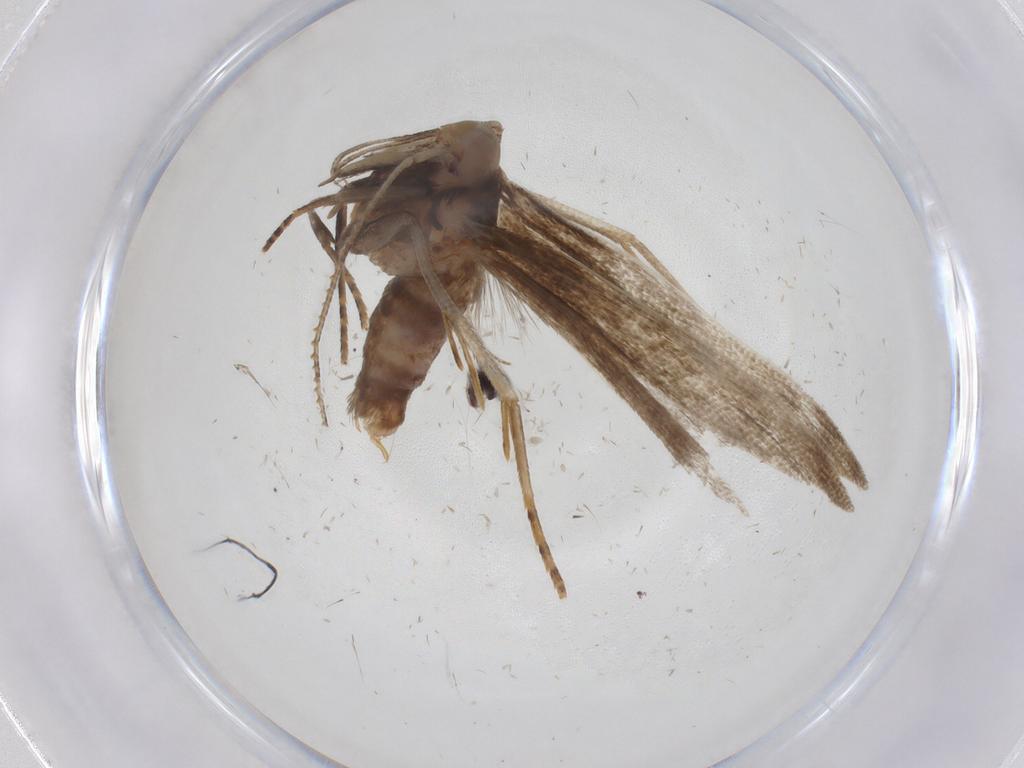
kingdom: Animalia
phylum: Arthropoda
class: Insecta
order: Lepidoptera
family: Gelechiidae
